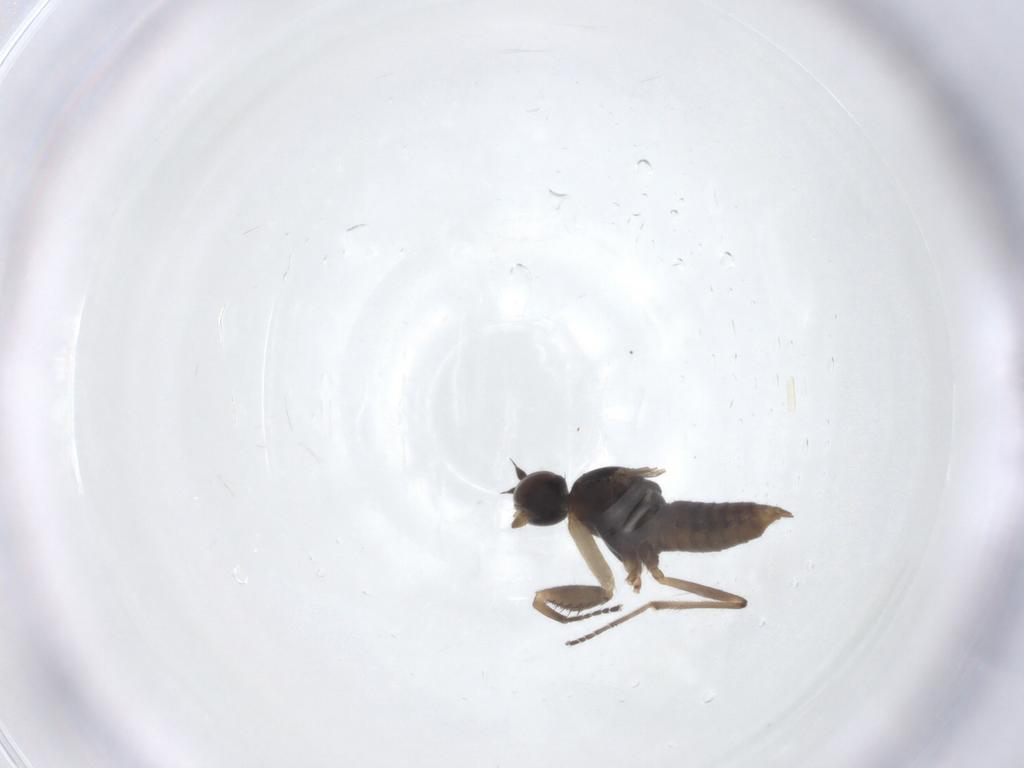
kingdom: Animalia
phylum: Arthropoda
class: Insecta
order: Diptera
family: Empididae
